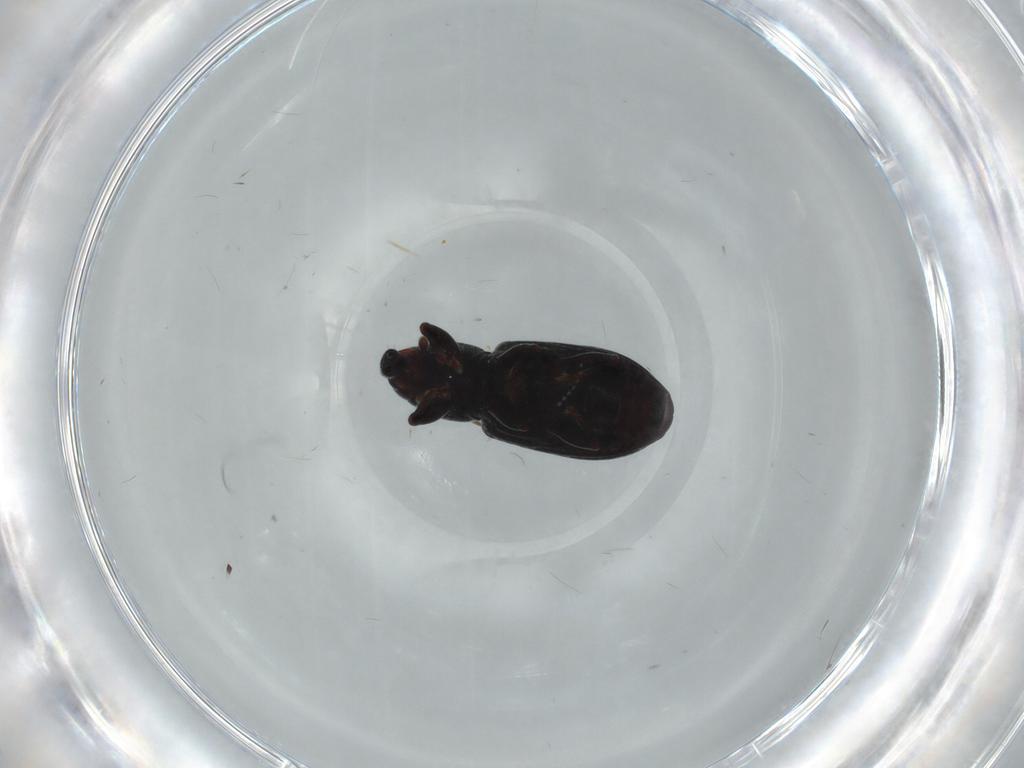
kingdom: Animalia
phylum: Arthropoda
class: Insecta
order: Coleoptera
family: Curculionidae
